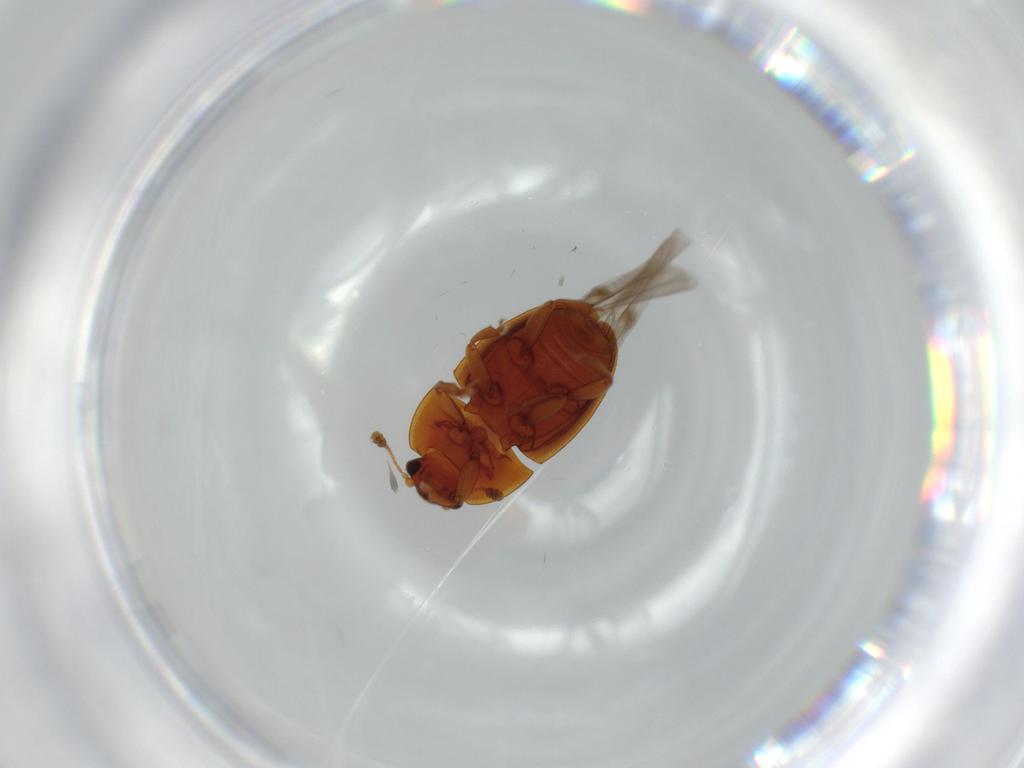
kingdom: Animalia
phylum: Arthropoda
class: Insecta
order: Coleoptera
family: Nitidulidae
